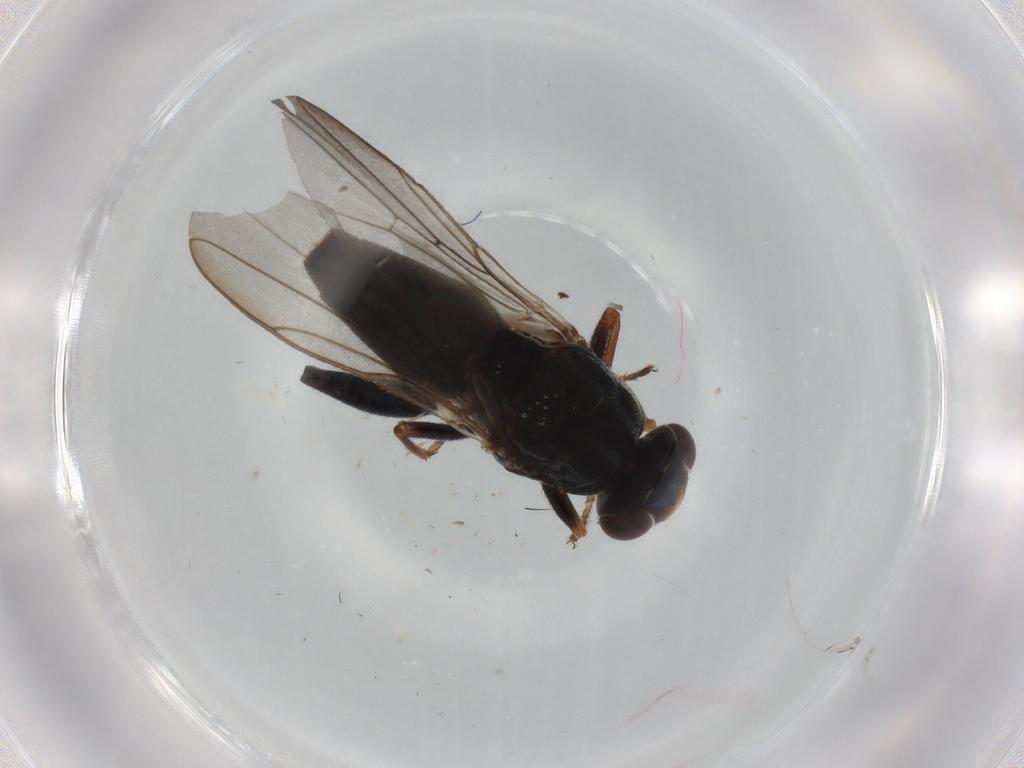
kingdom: Animalia
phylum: Arthropoda
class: Insecta
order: Diptera
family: Chloropidae
